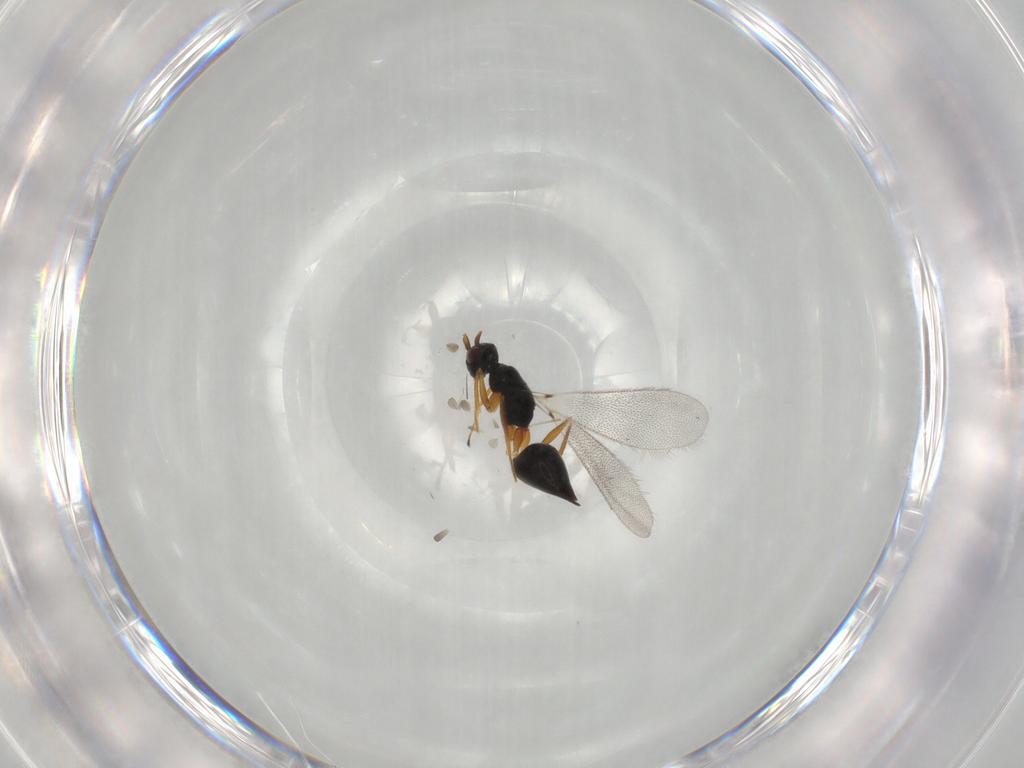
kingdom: Animalia
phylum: Arthropoda
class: Insecta
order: Hymenoptera
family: Mymaridae
